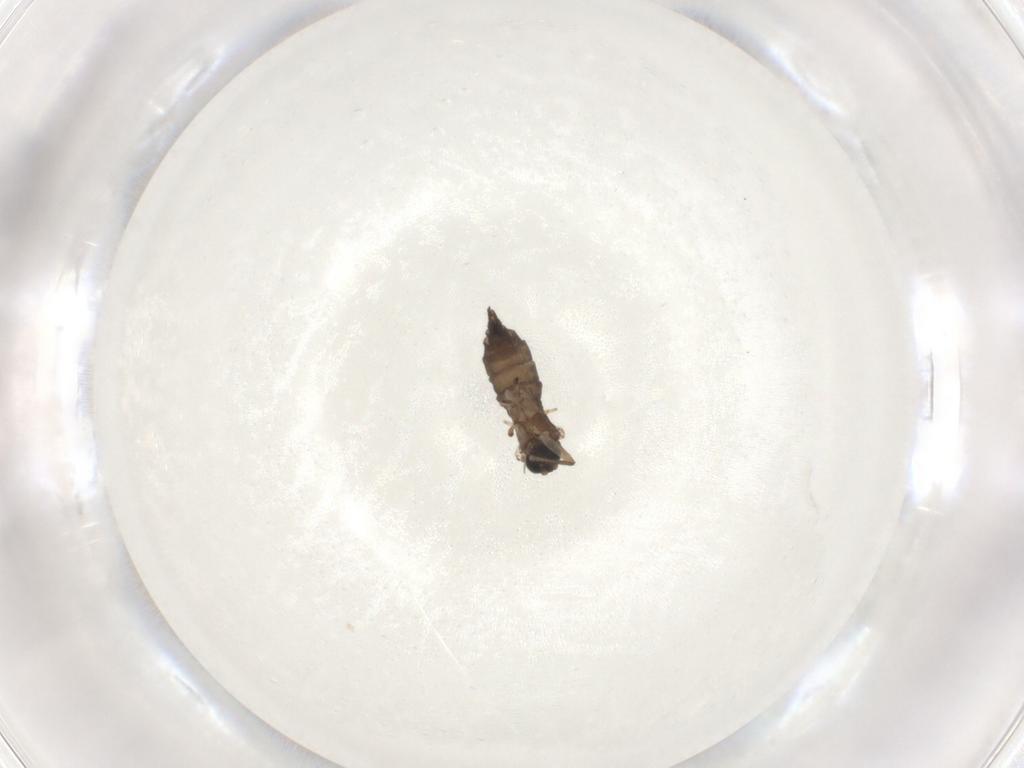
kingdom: Animalia
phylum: Arthropoda
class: Insecta
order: Diptera
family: Sciaridae
